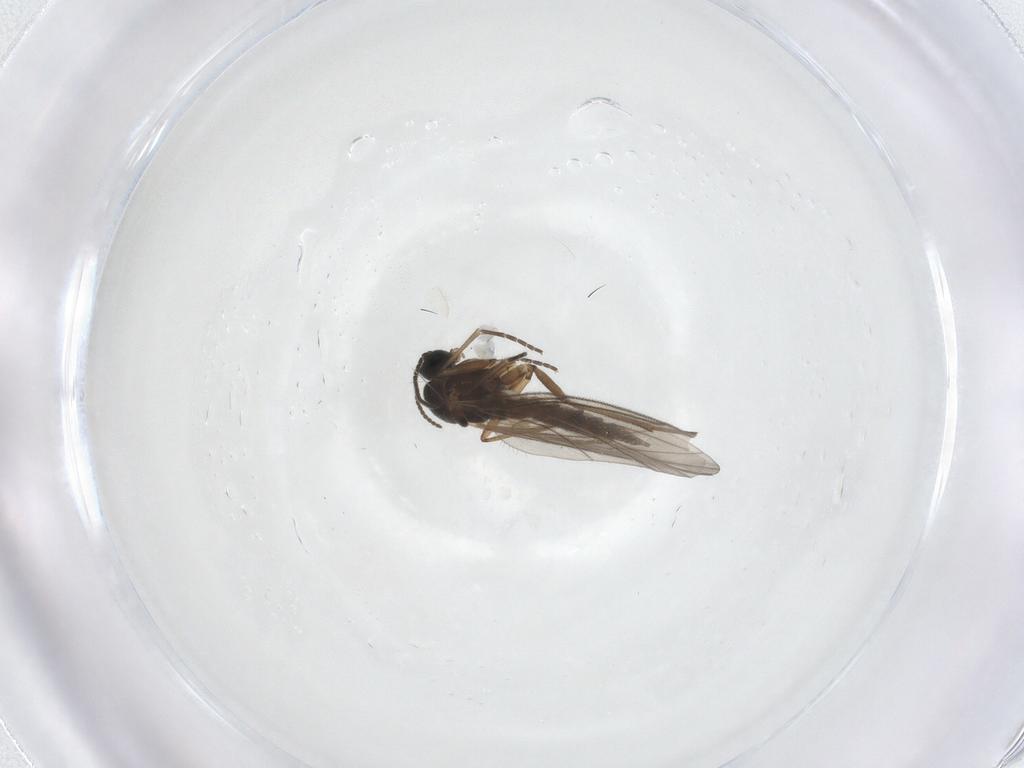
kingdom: Animalia
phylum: Arthropoda
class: Insecta
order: Diptera
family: Sciaridae
